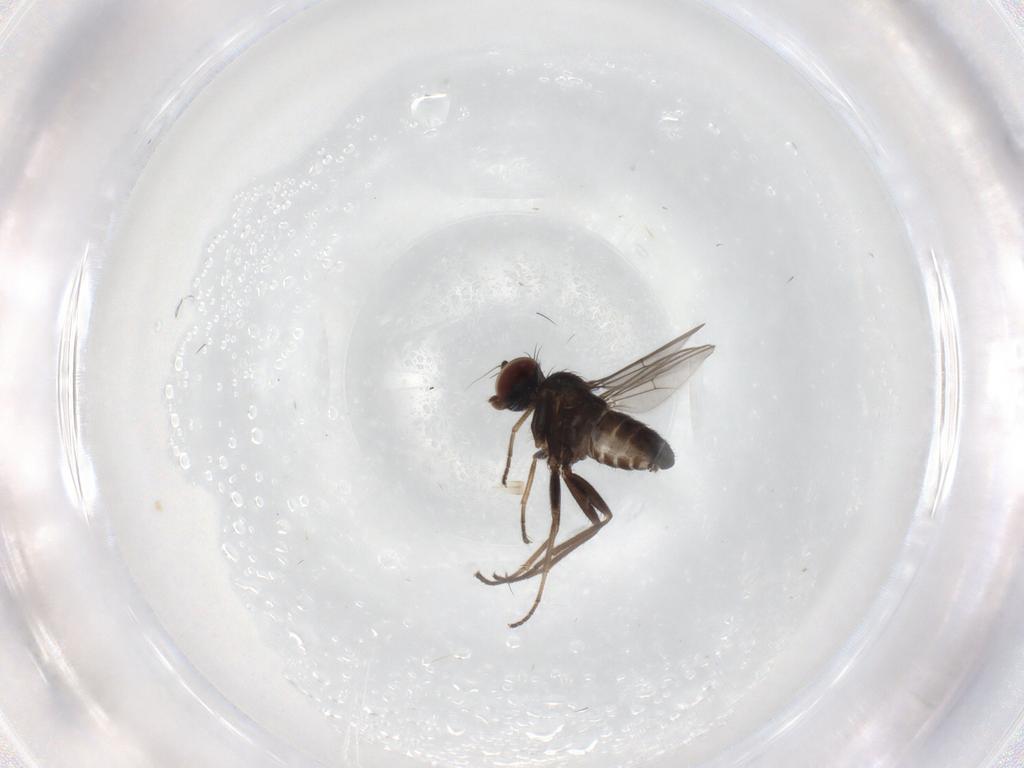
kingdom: Animalia
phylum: Arthropoda
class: Insecta
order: Diptera
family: Dolichopodidae
